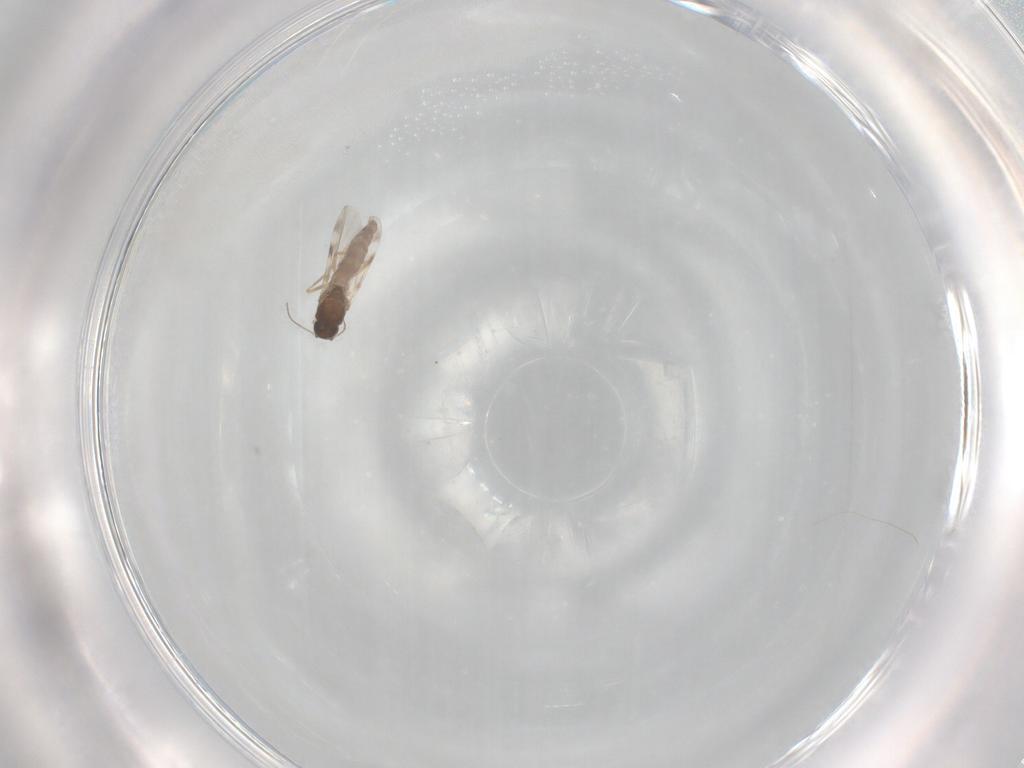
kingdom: Animalia
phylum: Arthropoda
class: Insecta
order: Diptera
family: Ceratopogonidae
